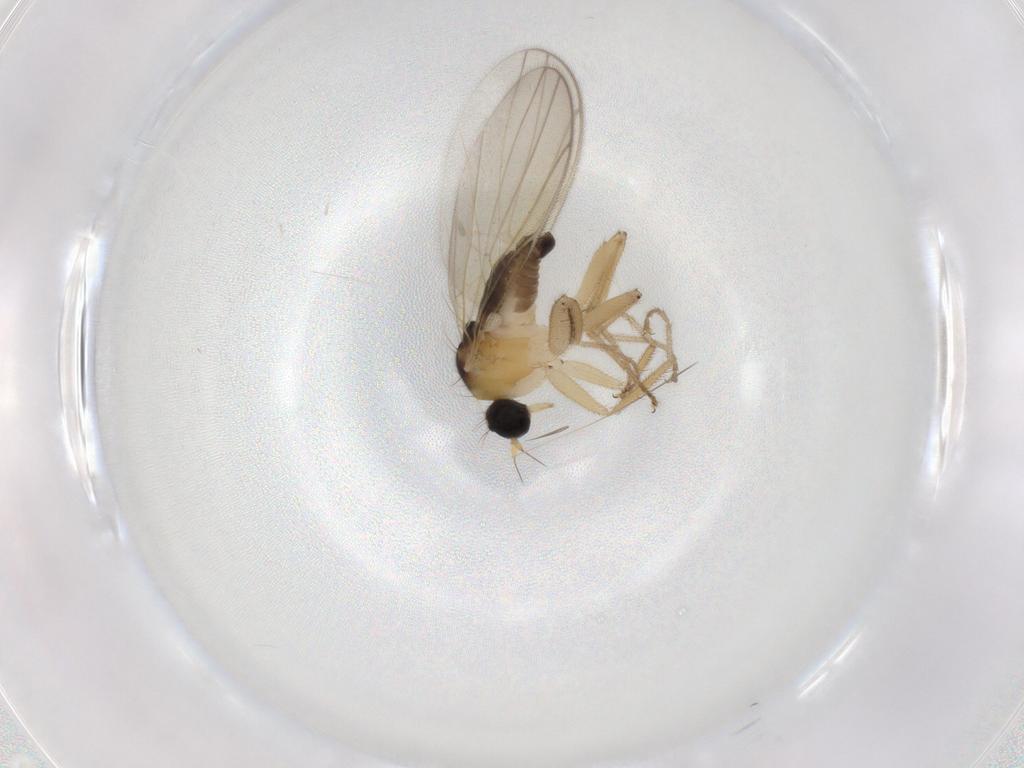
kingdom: Animalia
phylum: Arthropoda
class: Insecta
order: Diptera
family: Hybotidae
